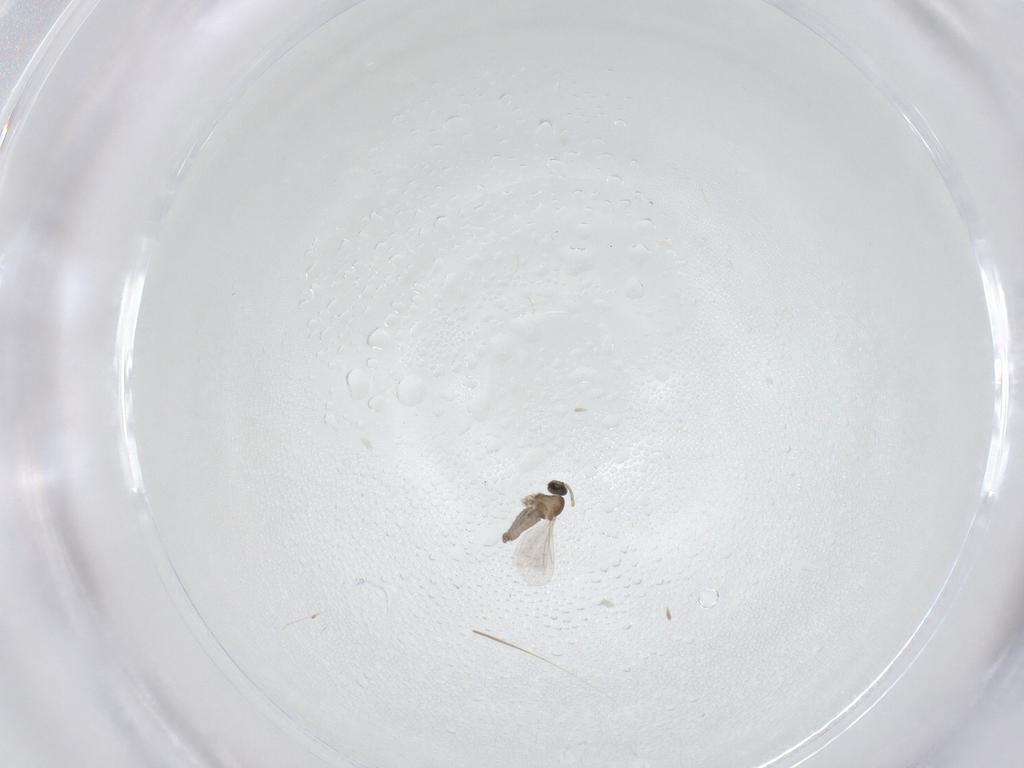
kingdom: Animalia
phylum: Arthropoda
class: Insecta
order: Diptera
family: Cecidomyiidae
